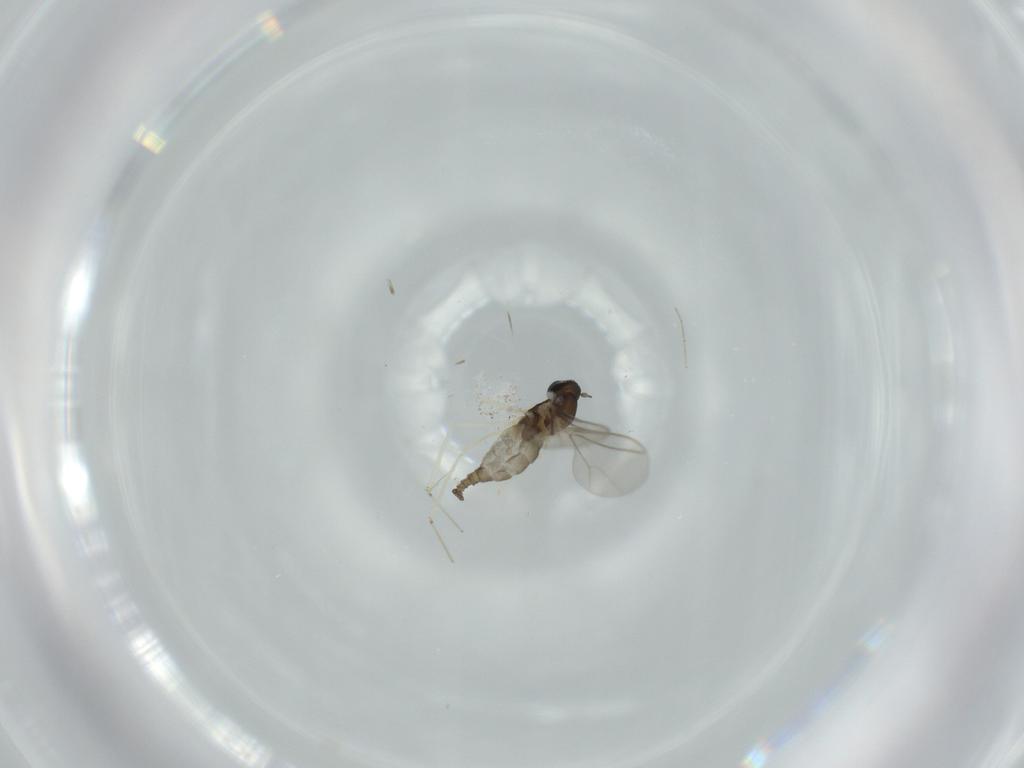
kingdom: Animalia
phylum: Arthropoda
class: Insecta
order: Diptera
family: Cecidomyiidae
